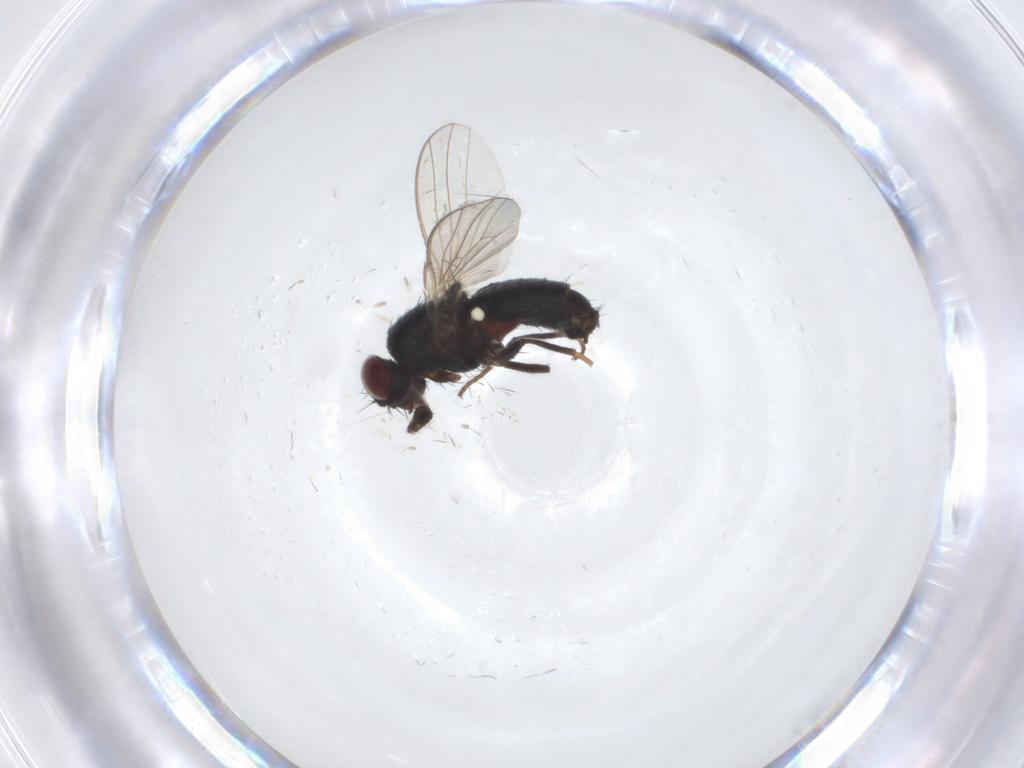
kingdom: Animalia
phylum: Arthropoda
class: Insecta
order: Diptera
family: Carnidae
